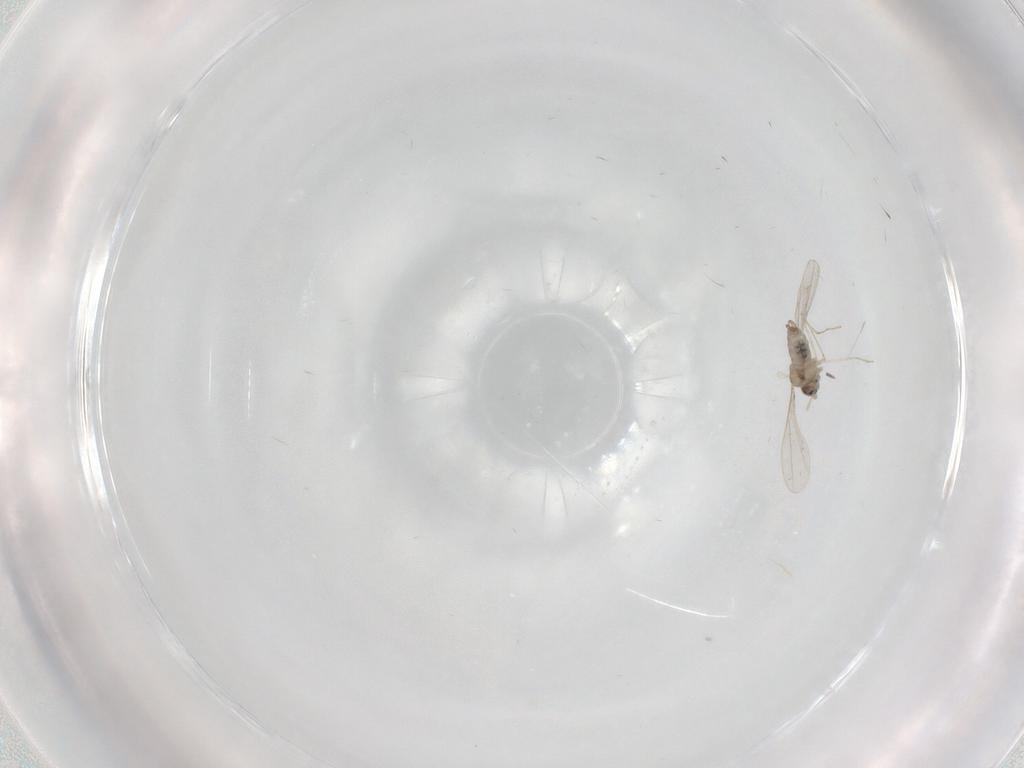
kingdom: Animalia
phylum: Arthropoda
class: Insecta
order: Diptera
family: Cecidomyiidae
